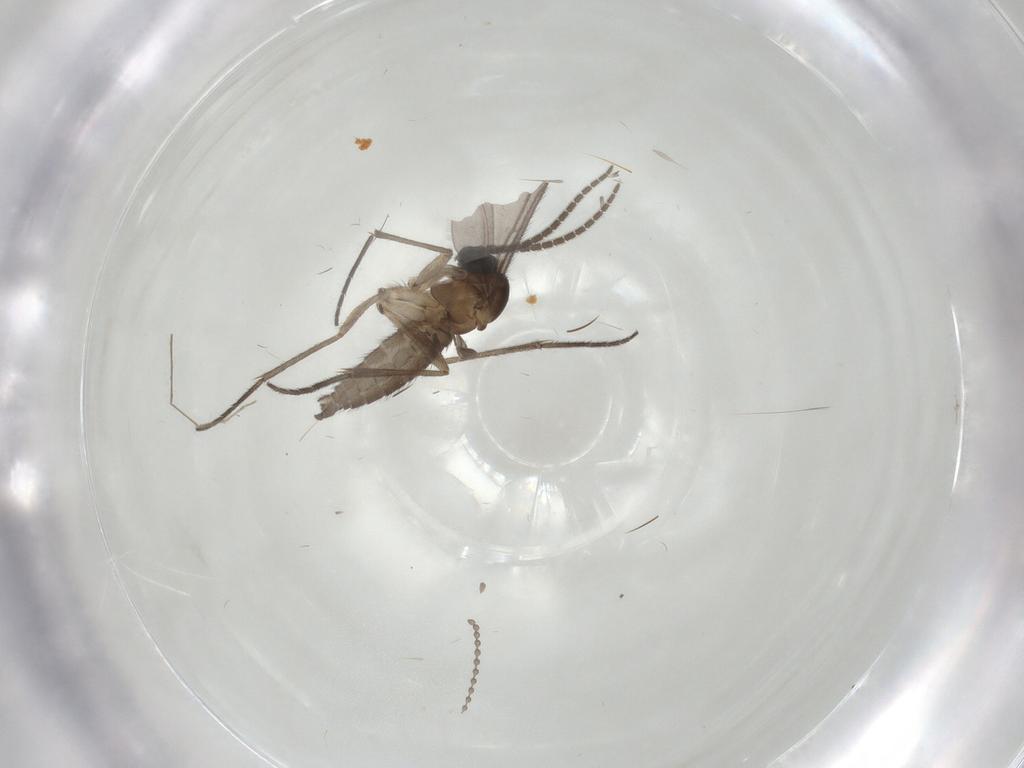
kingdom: Animalia
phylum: Arthropoda
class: Insecta
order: Diptera
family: Sciaridae
